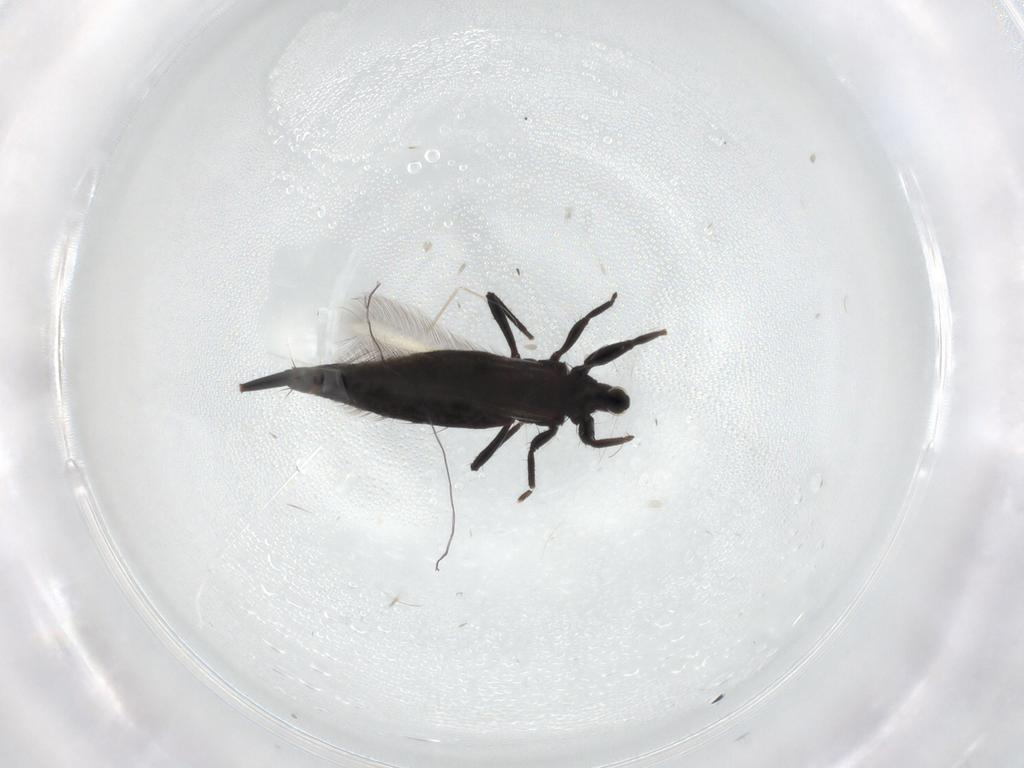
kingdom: Animalia
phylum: Arthropoda
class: Insecta
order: Thysanoptera
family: Phlaeothripidae
